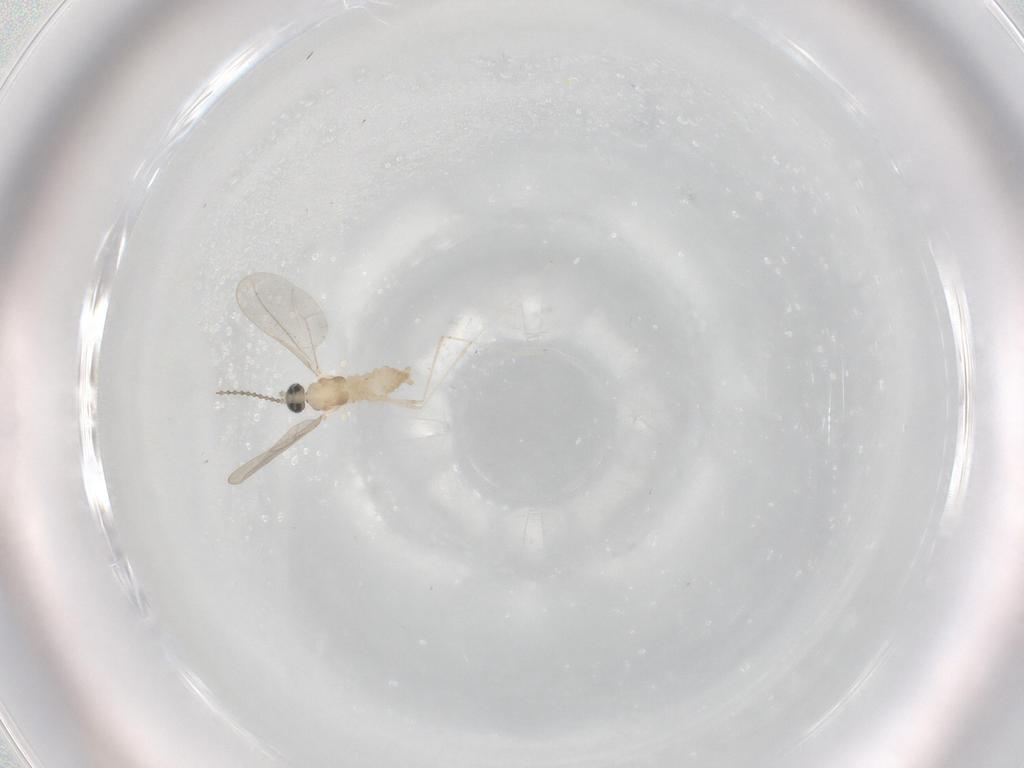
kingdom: Animalia
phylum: Arthropoda
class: Insecta
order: Diptera
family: Cecidomyiidae
